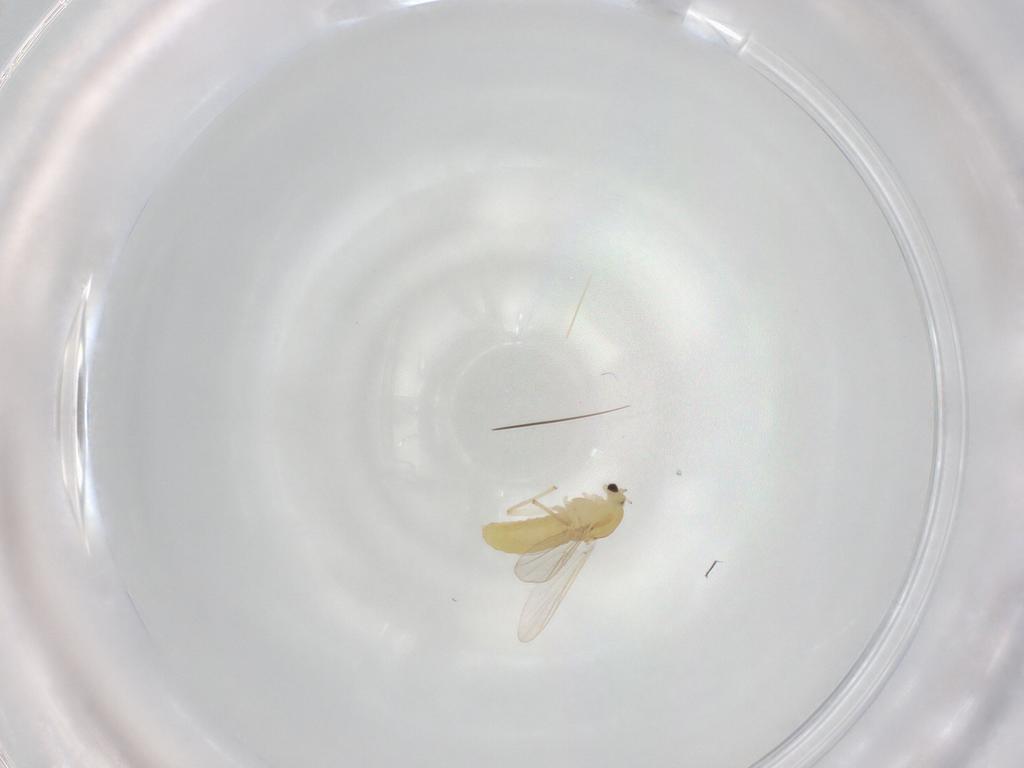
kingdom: Animalia
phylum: Arthropoda
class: Insecta
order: Diptera
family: Chironomidae
